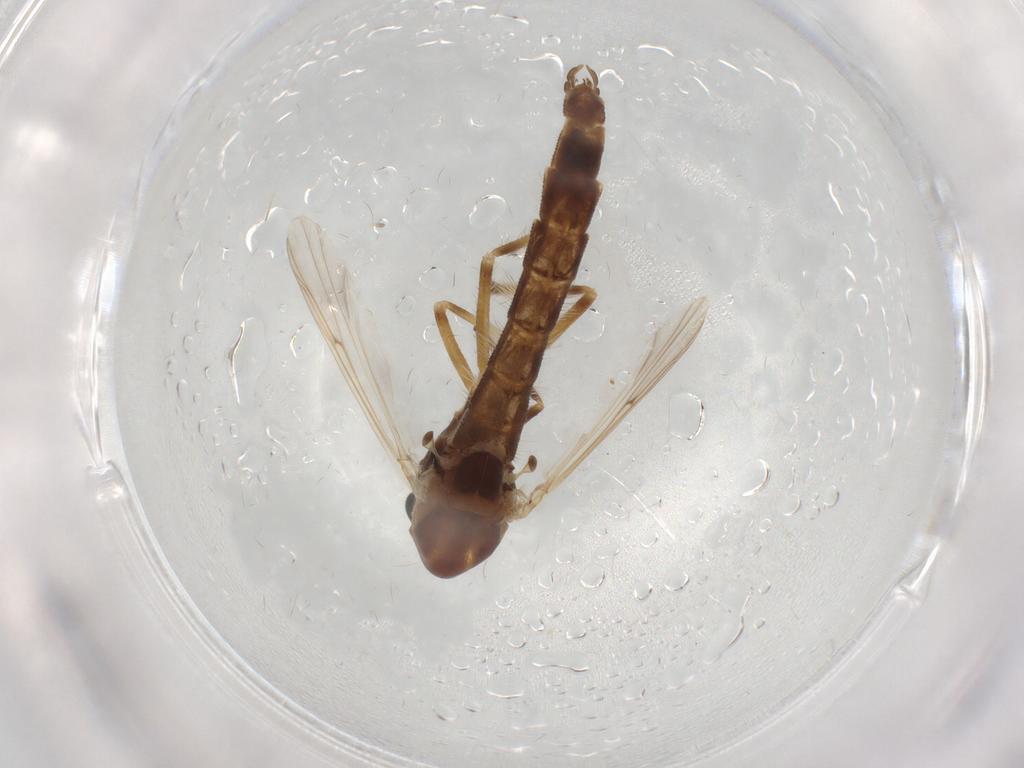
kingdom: Animalia
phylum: Arthropoda
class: Insecta
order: Diptera
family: Chironomidae
